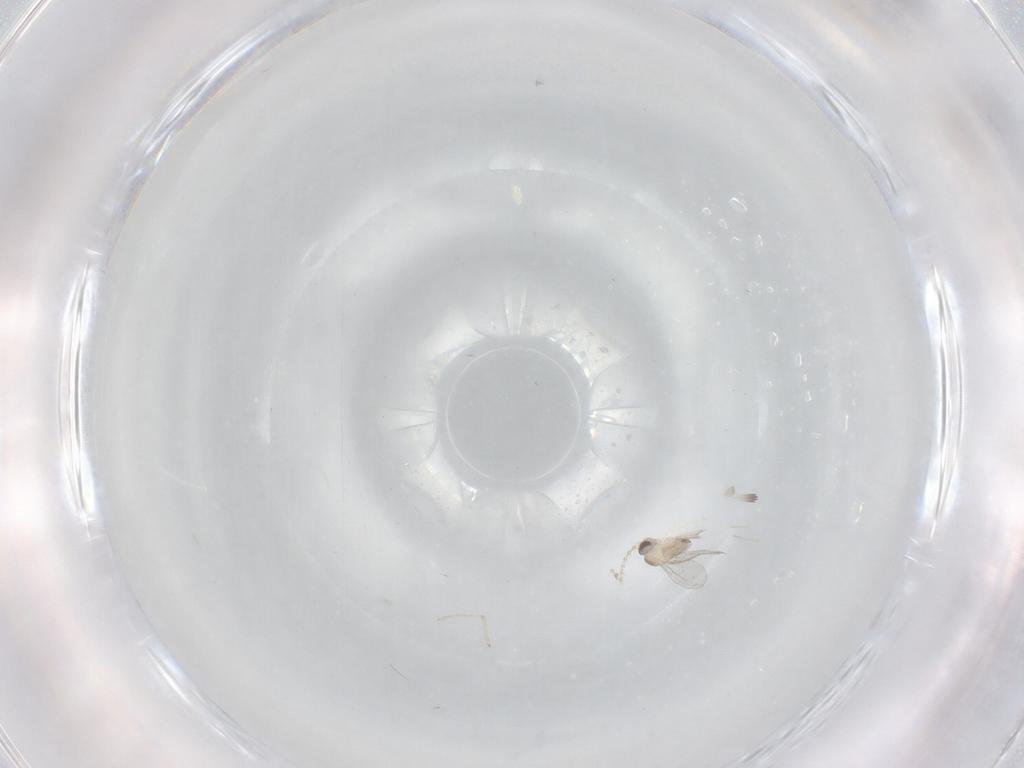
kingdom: Animalia
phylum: Arthropoda
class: Insecta
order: Diptera
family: Cecidomyiidae
